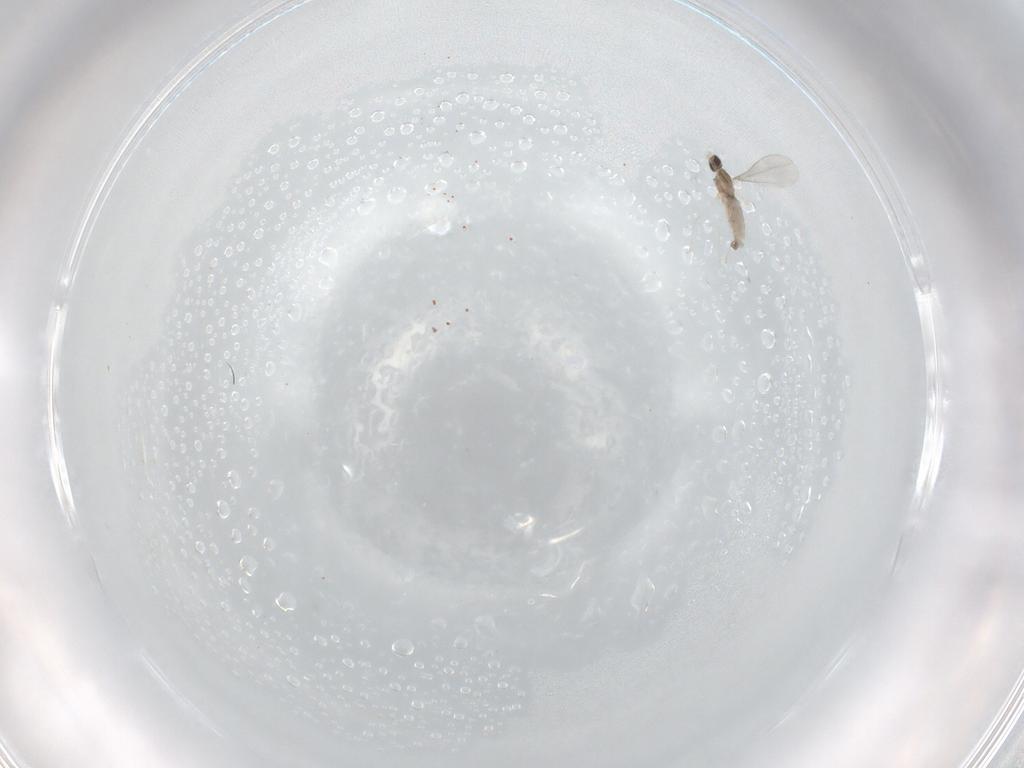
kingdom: Animalia
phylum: Arthropoda
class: Insecta
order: Diptera
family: Cecidomyiidae
